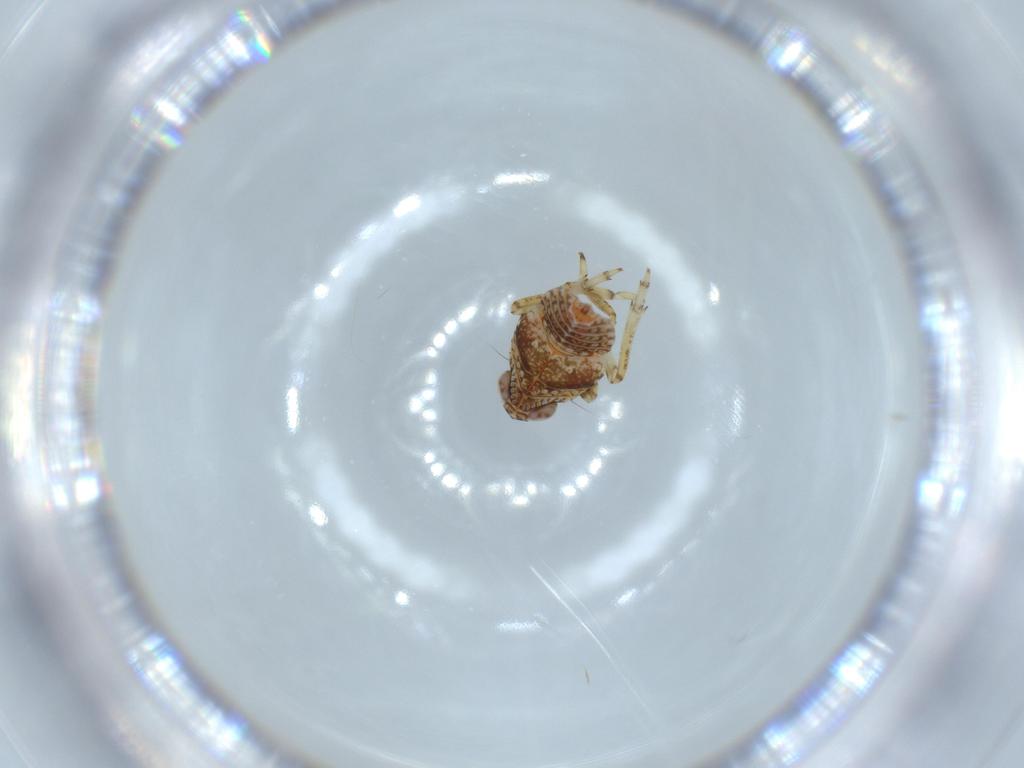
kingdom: Animalia
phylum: Arthropoda
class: Insecta
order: Hemiptera
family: Issidae
